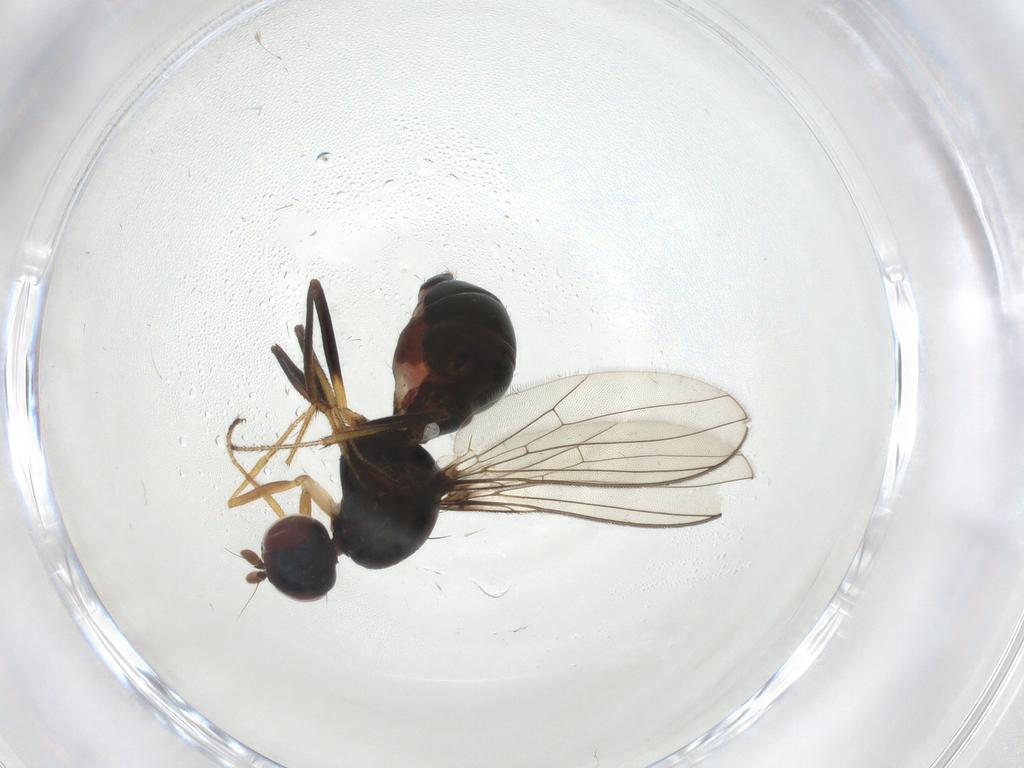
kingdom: Animalia
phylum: Arthropoda
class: Insecta
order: Diptera
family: Sepsidae
